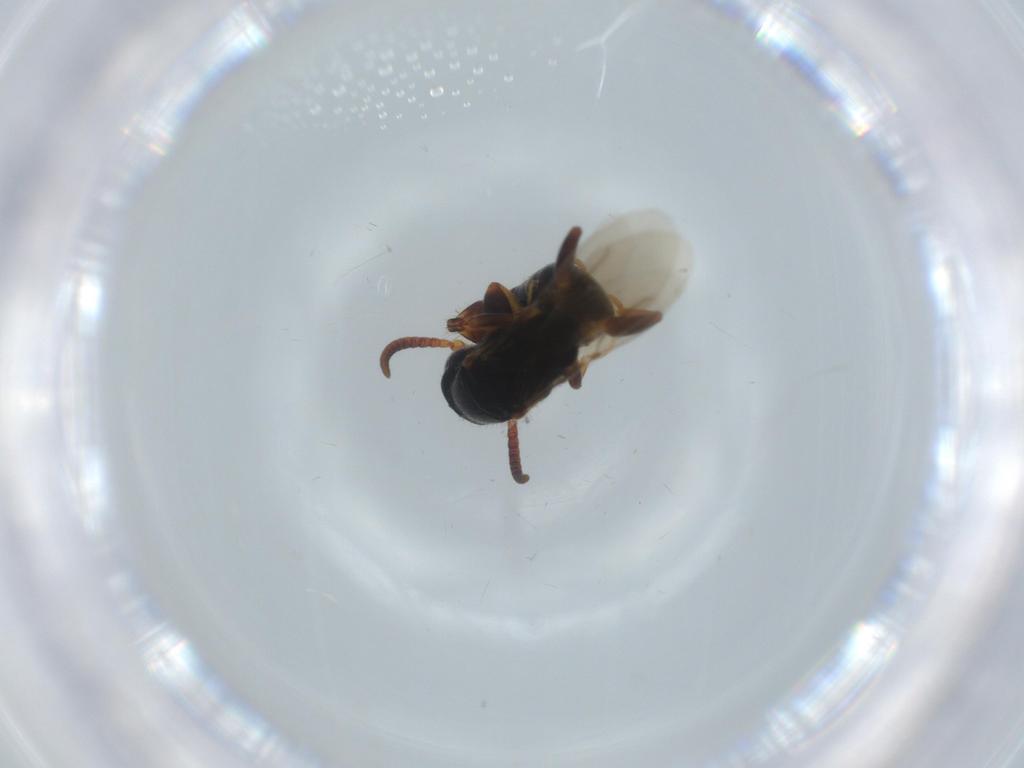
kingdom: Animalia
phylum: Arthropoda
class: Insecta
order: Hymenoptera
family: Bethylidae
